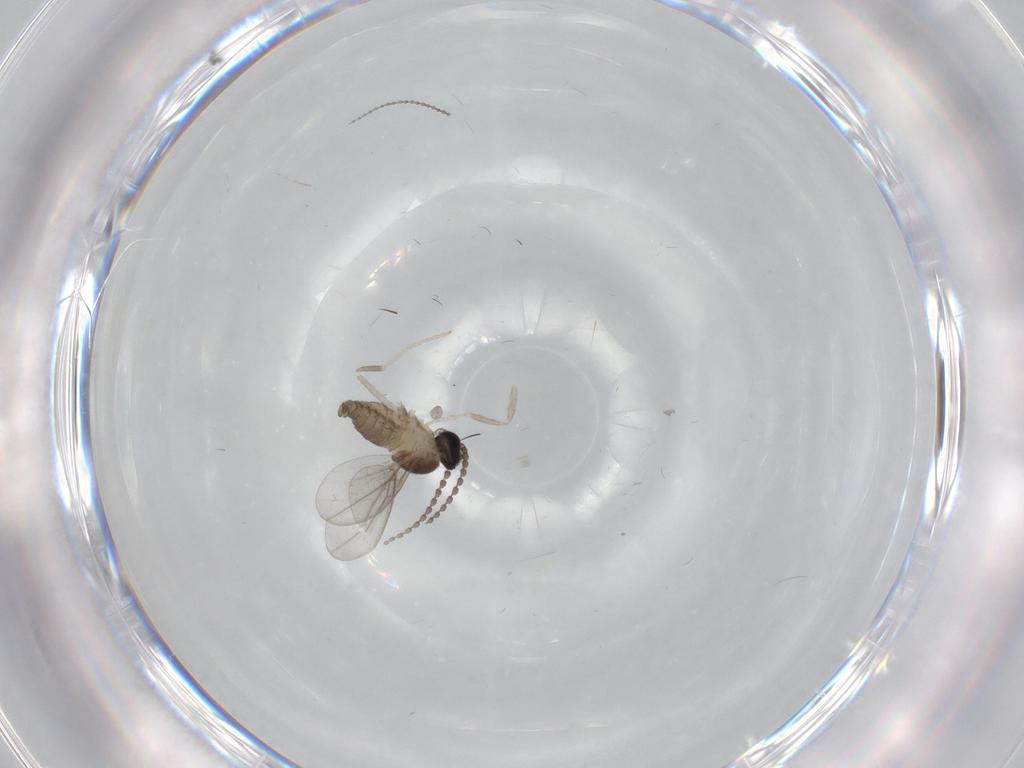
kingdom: Animalia
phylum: Arthropoda
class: Insecta
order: Diptera
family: Cecidomyiidae
